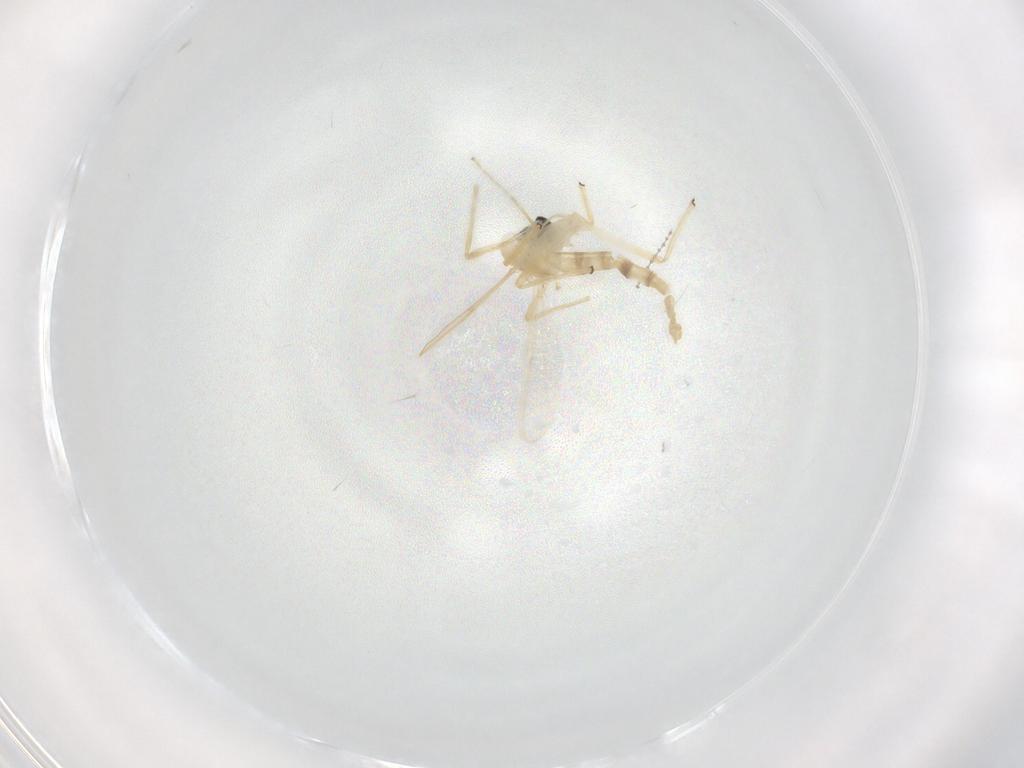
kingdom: Animalia
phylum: Arthropoda
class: Insecta
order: Diptera
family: Chironomidae
